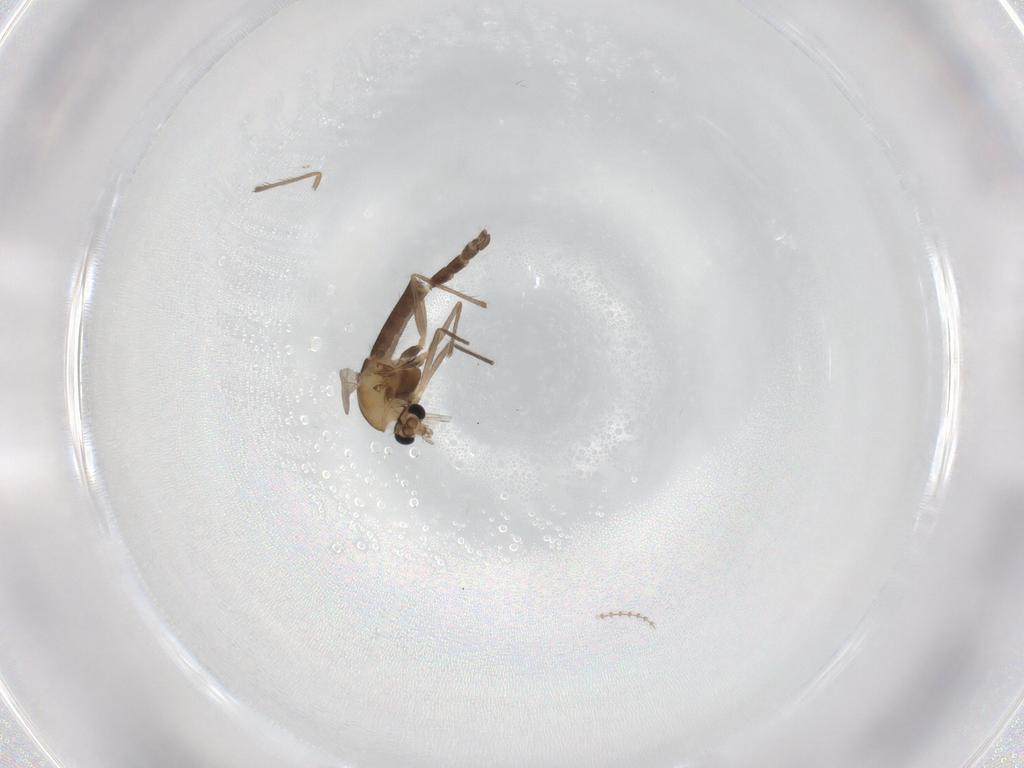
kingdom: Animalia
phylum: Arthropoda
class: Insecta
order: Diptera
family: Chironomidae
